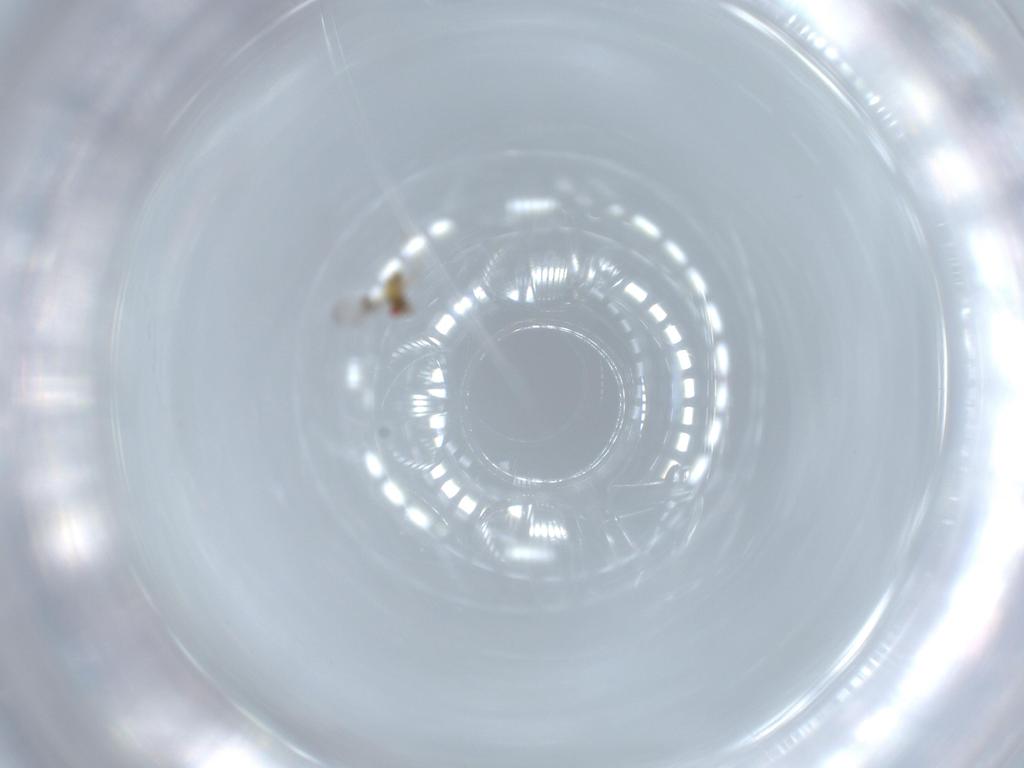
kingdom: Animalia
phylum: Arthropoda
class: Insecta
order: Hymenoptera
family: Trichogrammatidae
